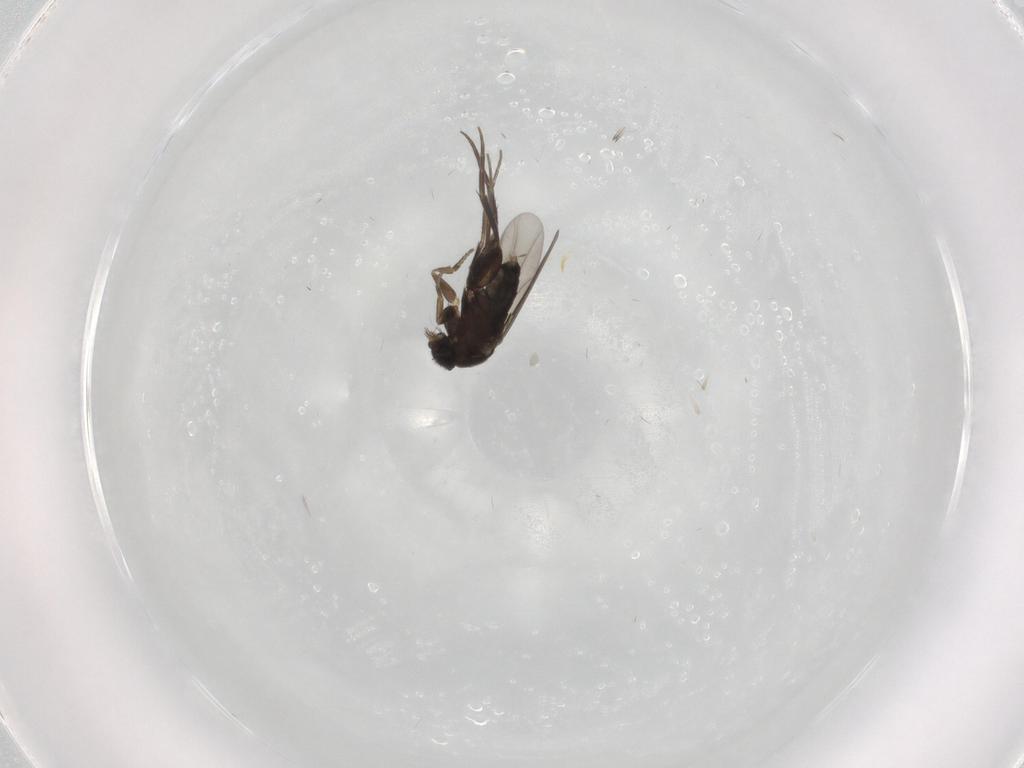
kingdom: Animalia
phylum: Arthropoda
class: Insecta
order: Diptera
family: Phoridae
